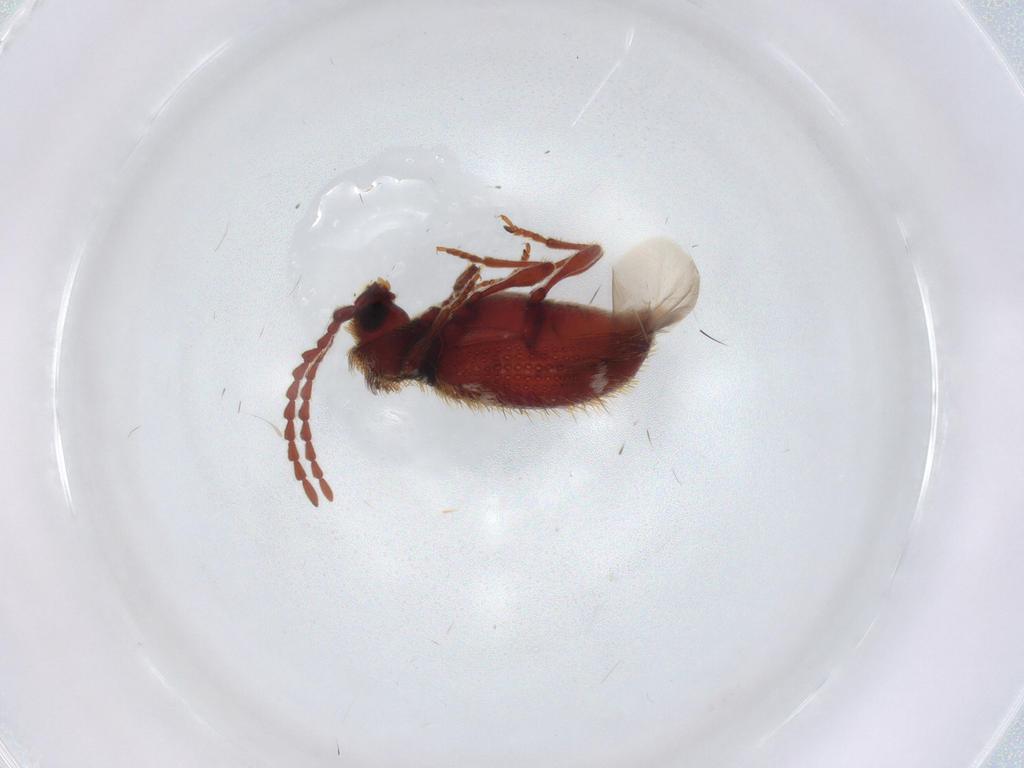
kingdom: Animalia
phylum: Arthropoda
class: Insecta
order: Coleoptera
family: Ptinidae
